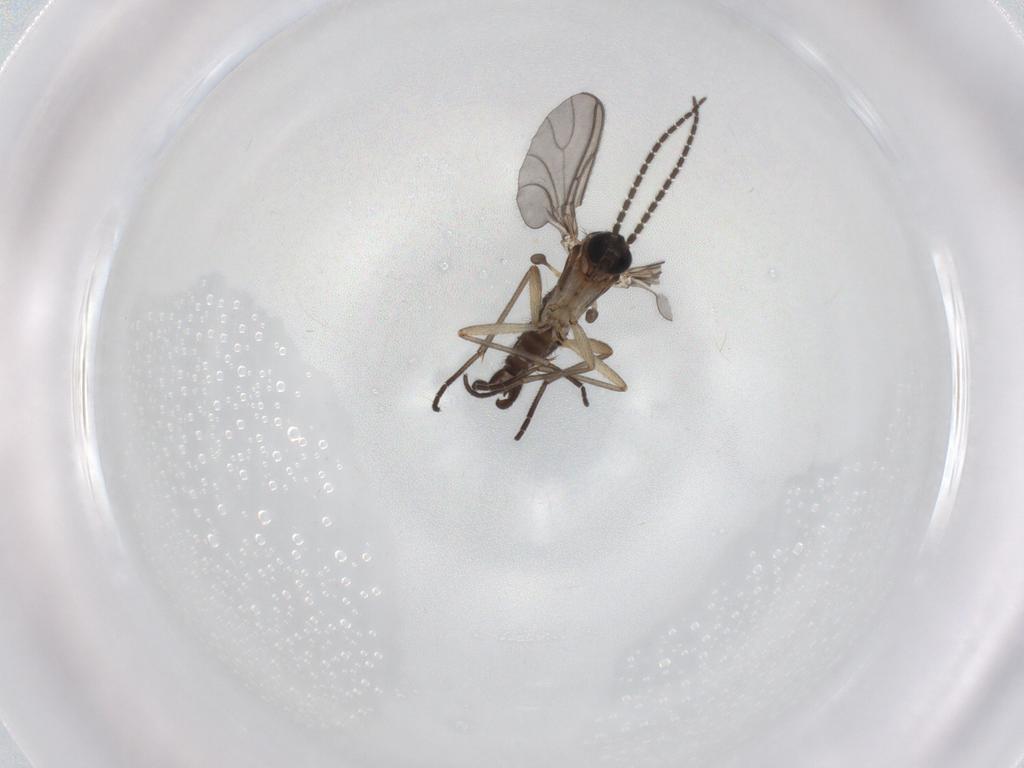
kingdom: Animalia
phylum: Arthropoda
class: Insecta
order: Diptera
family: Sciaridae
